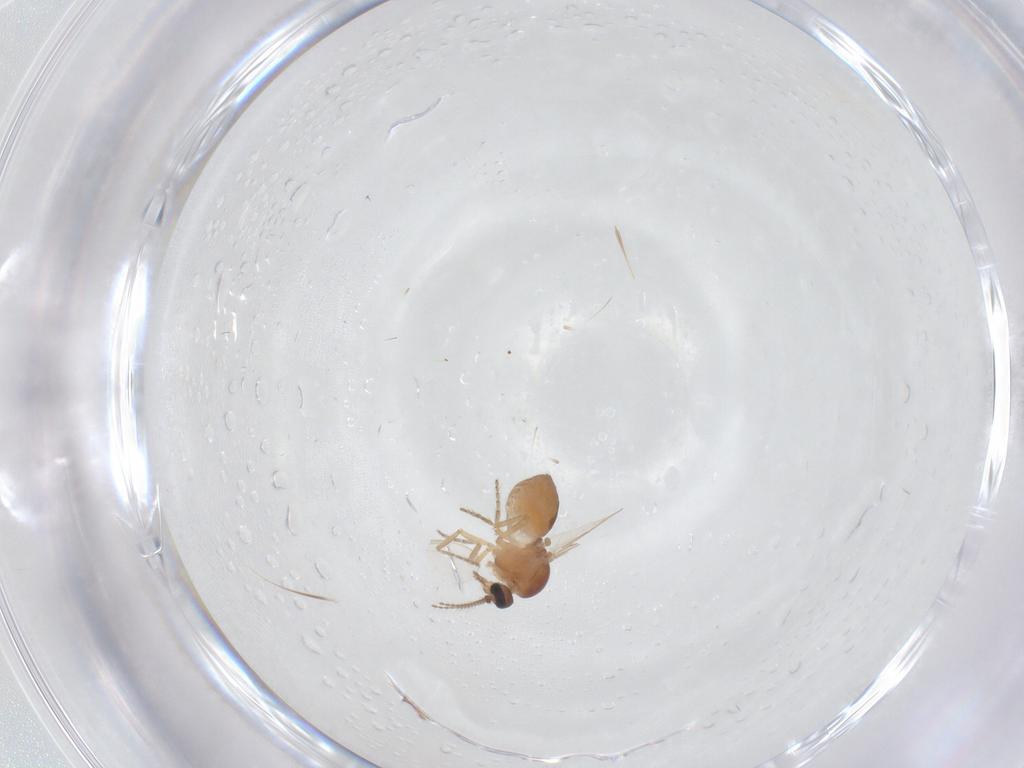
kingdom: Animalia
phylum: Arthropoda
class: Insecta
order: Diptera
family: Ceratopogonidae
